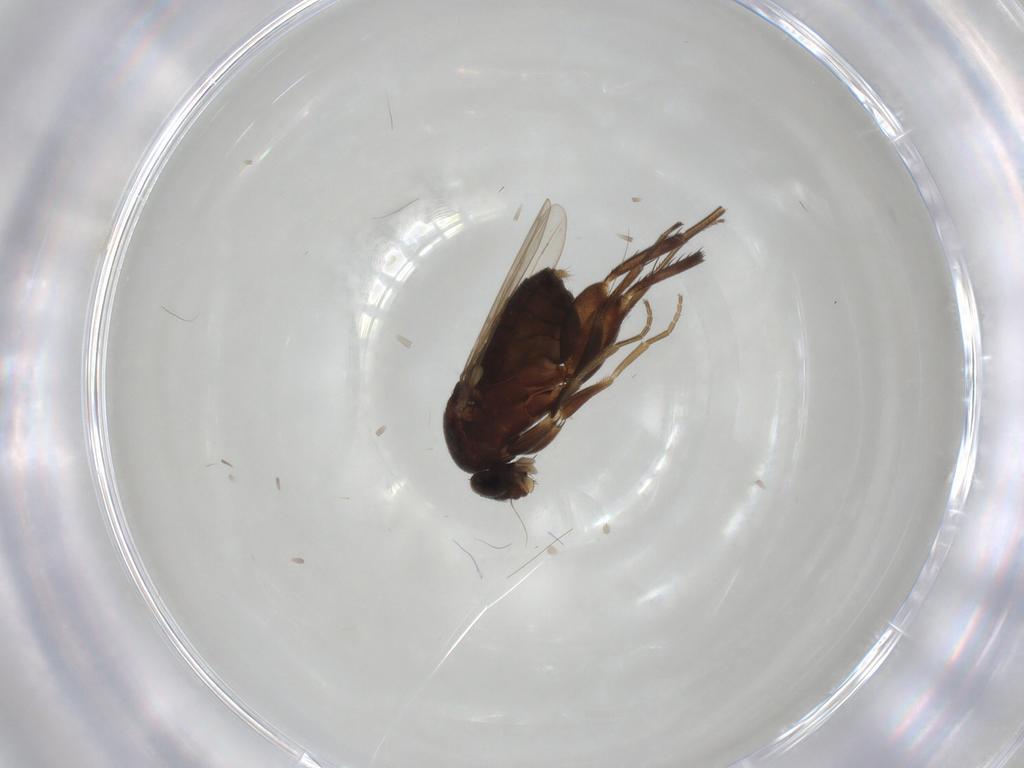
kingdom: Animalia
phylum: Arthropoda
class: Insecta
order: Diptera
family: Phoridae
